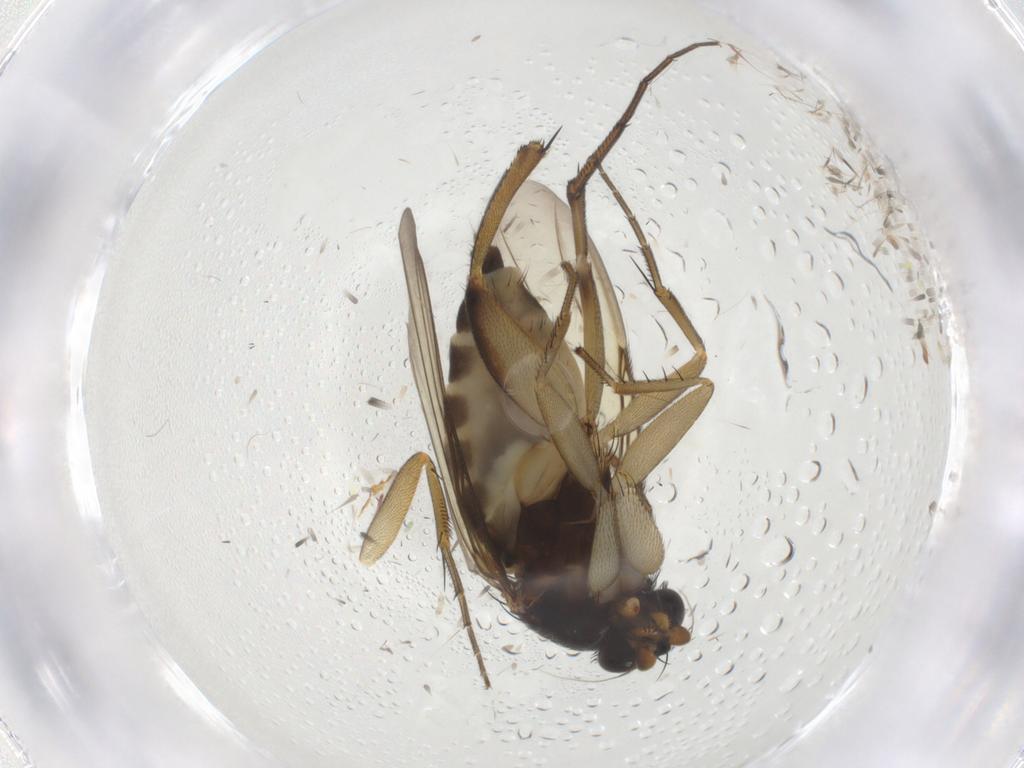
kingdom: Animalia
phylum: Arthropoda
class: Insecta
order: Diptera
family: Phoridae
